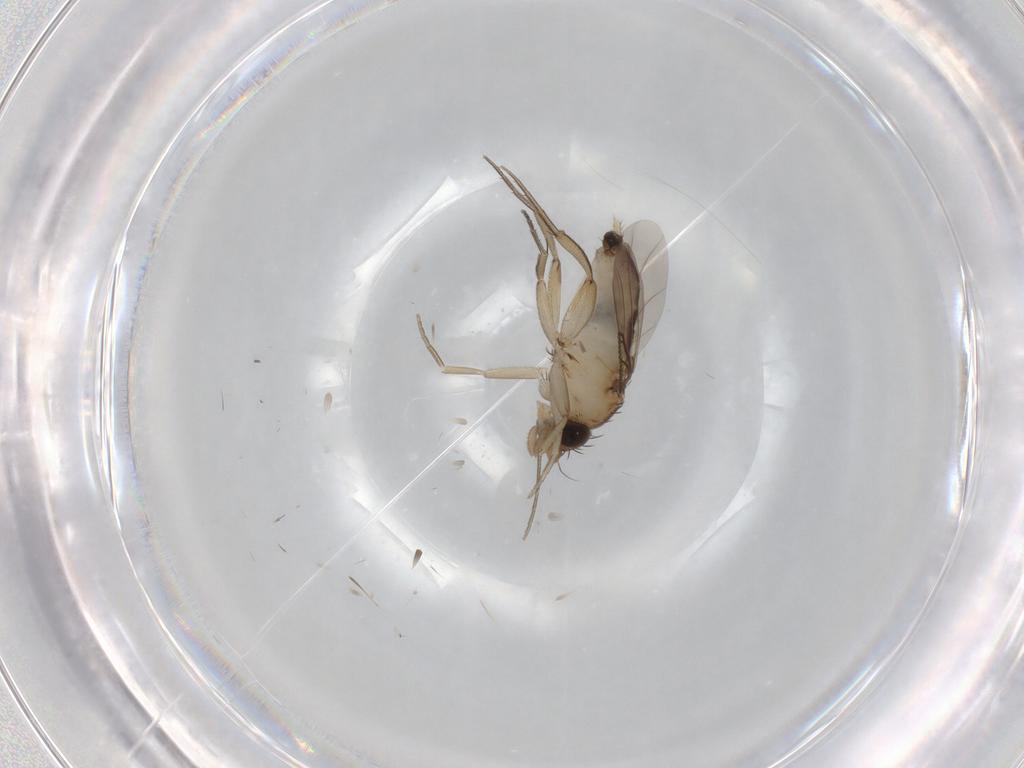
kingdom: Animalia
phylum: Arthropoda
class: Insecta
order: Diptera
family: Phoridae
